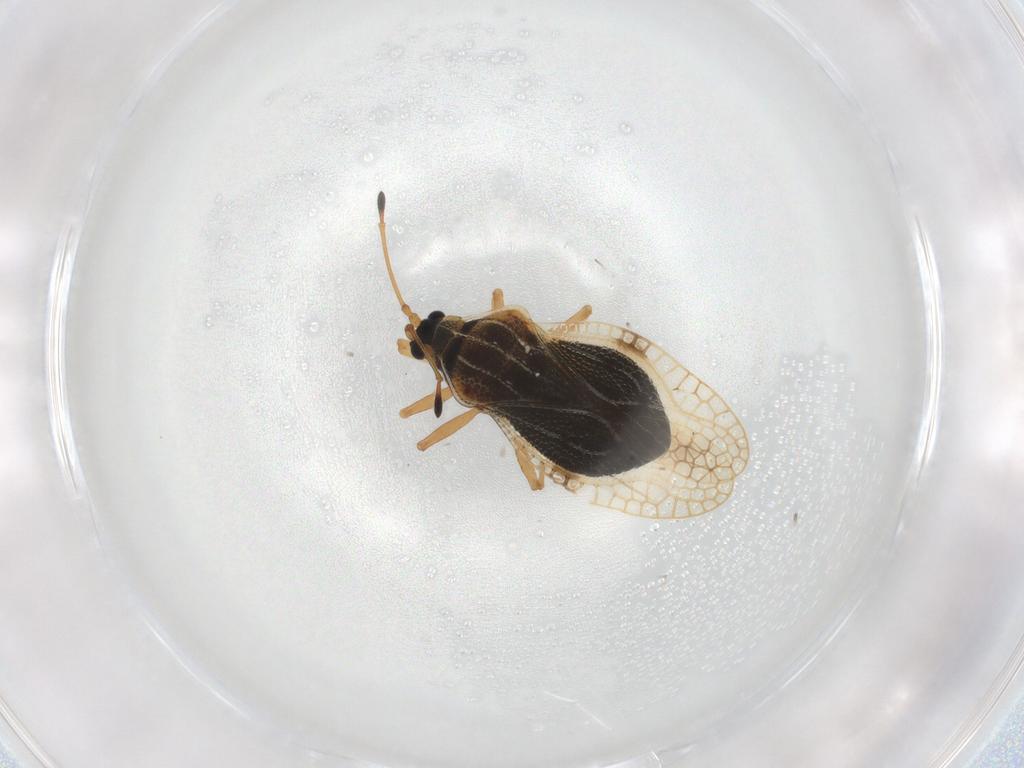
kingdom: Animalia
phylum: Arthropoda
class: Insecta
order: Hemiptera
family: Tingidae
